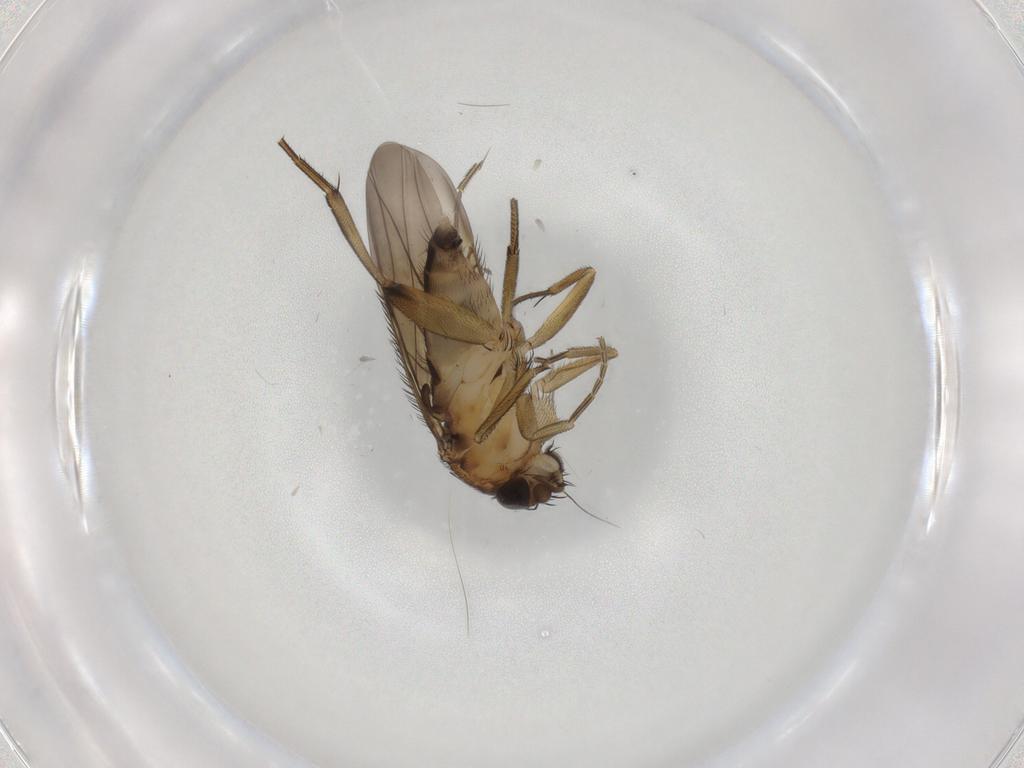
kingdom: Animalia
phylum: Arthropoda
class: Insecta
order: Diptera
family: Phoridae
